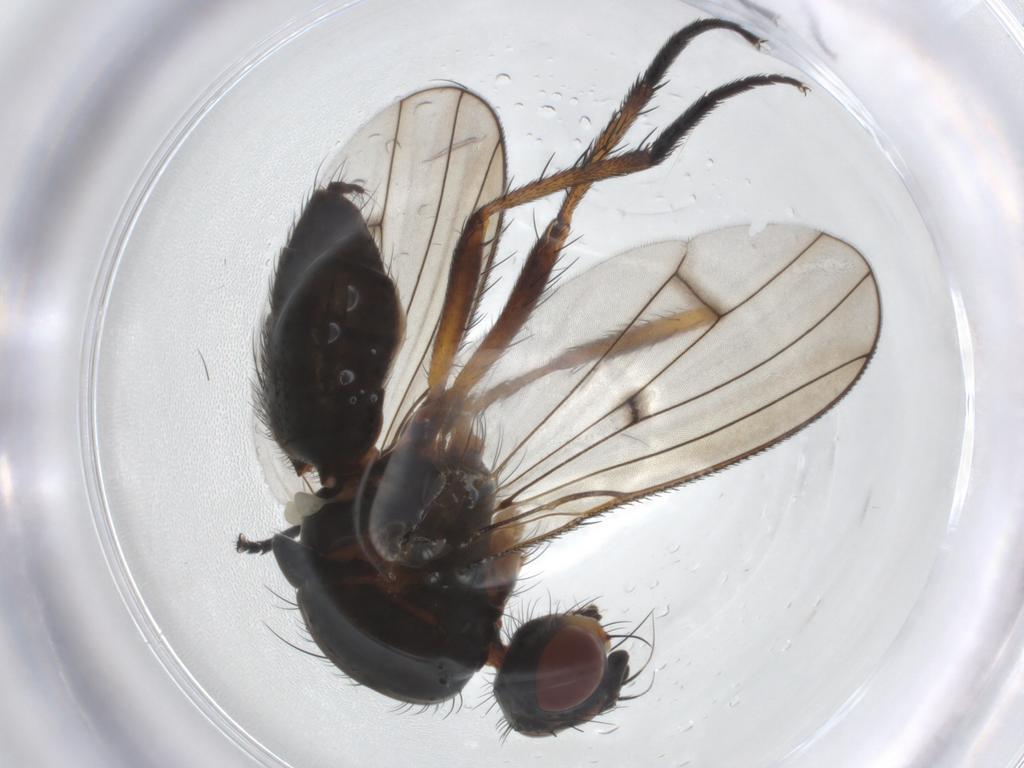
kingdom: Animalia
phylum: Arthropoda
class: Insecta
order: Diptera
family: Anthomyiidae
